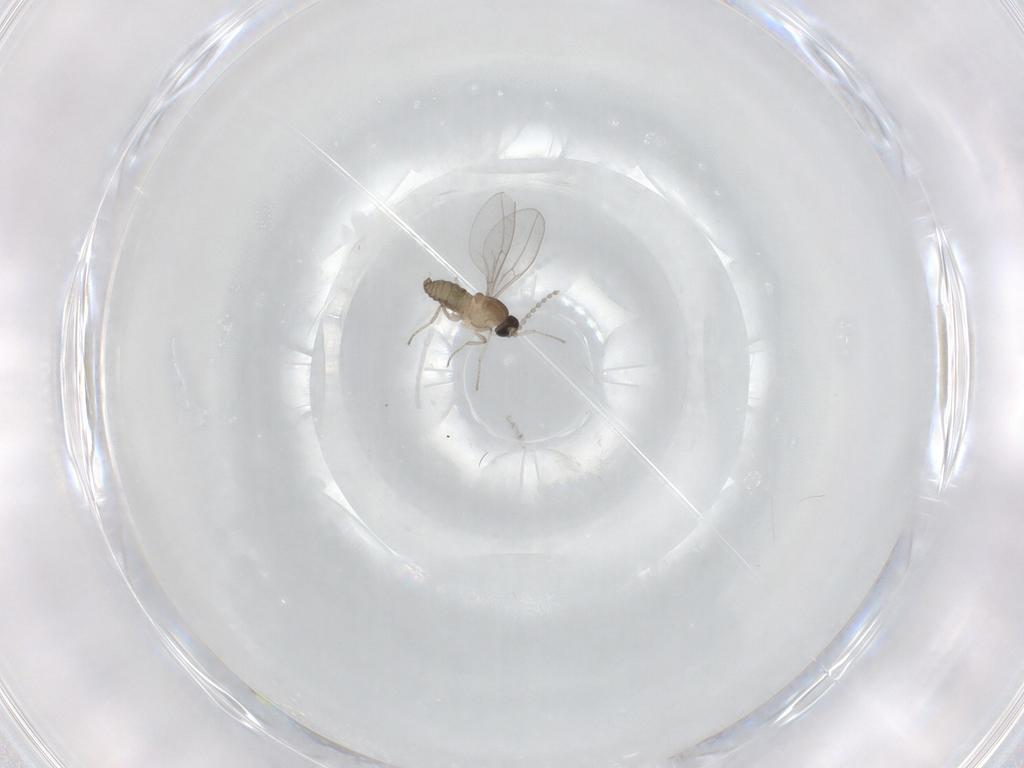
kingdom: Animalia
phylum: Arthropoda
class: Insecta
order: Diptera
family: Cecidomyiidae
